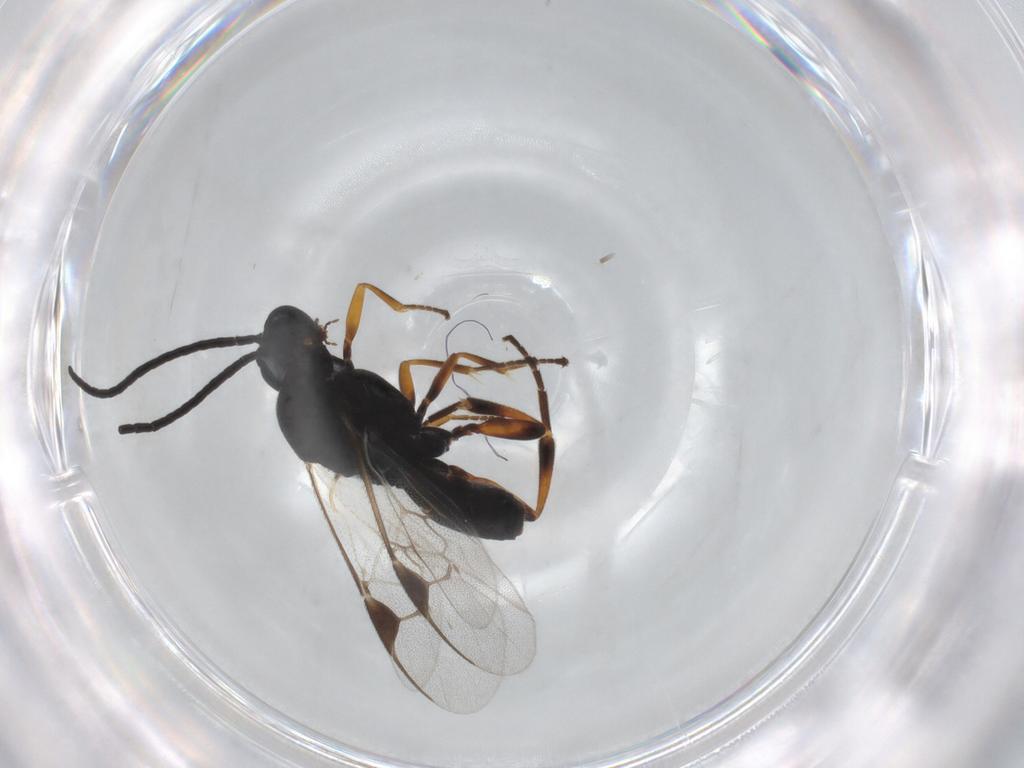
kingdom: Animalia
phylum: Arthropoda
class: Insecta
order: Hymenoptera
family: Braconidae
